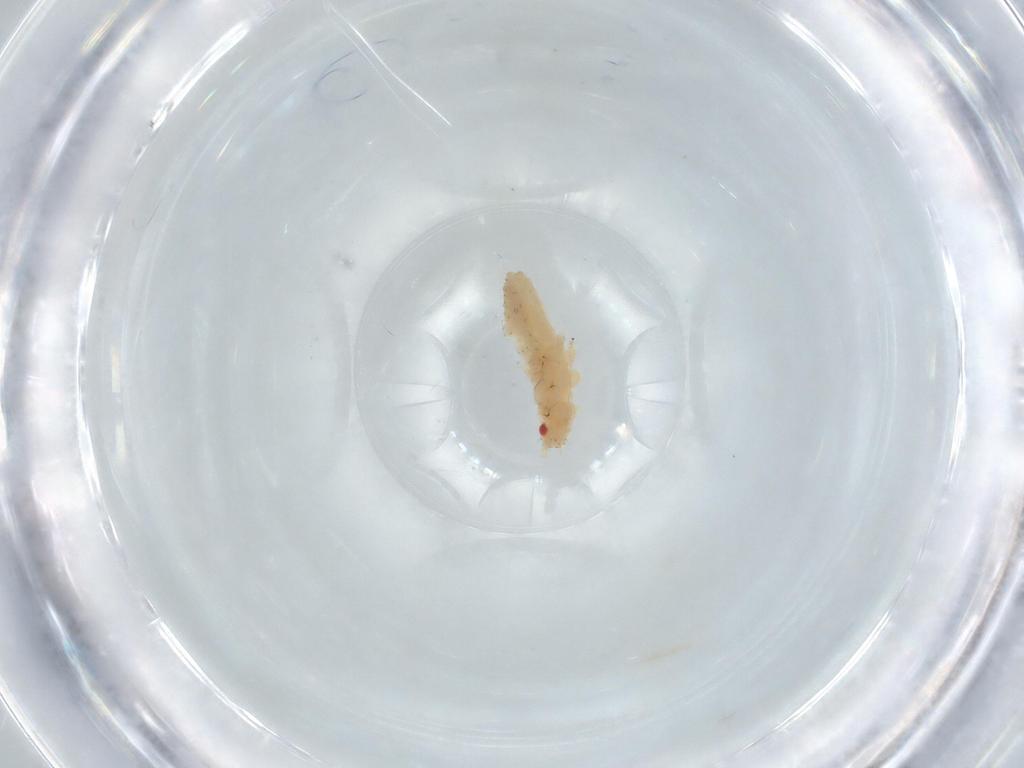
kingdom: Animalia
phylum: Arthropoda
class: Insecta
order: Hemiptera
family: Aphididae
